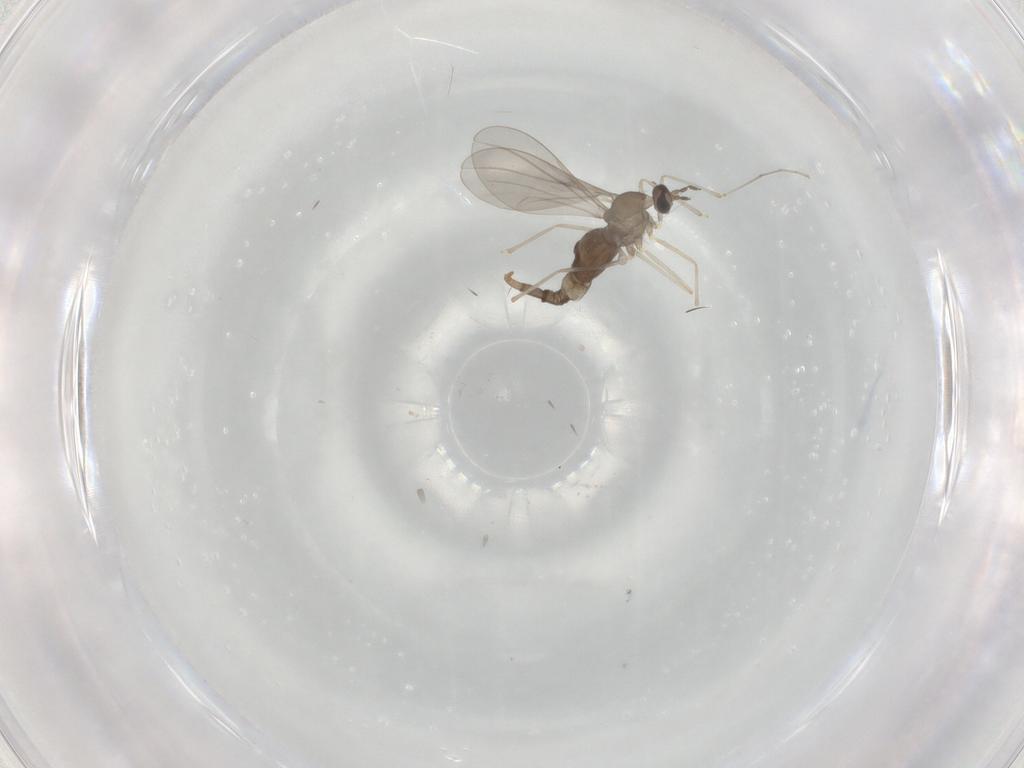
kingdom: Animalia
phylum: Arthropoda
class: Insecta
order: Diptera
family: Cecidomyiidae
